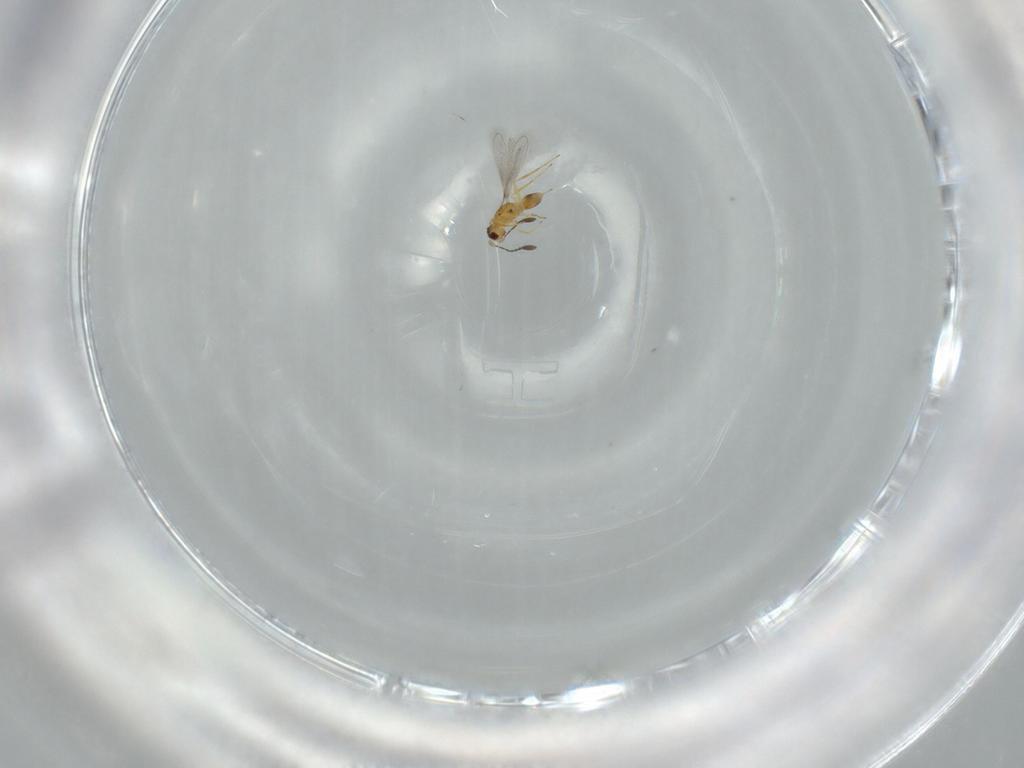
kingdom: Animalia
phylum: Arthropoda
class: Insecta
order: Hymenoptera
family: Mymaridae
